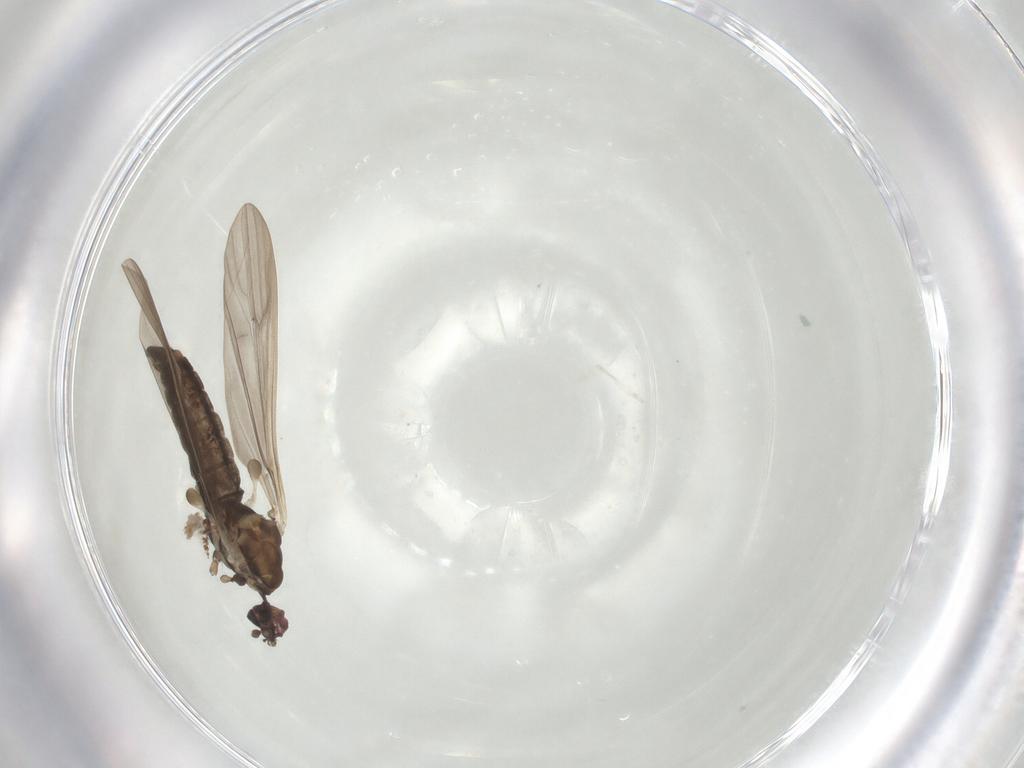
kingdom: Animalia
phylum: Arthropoda
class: Insecta
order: Diptera
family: Limoniidae
